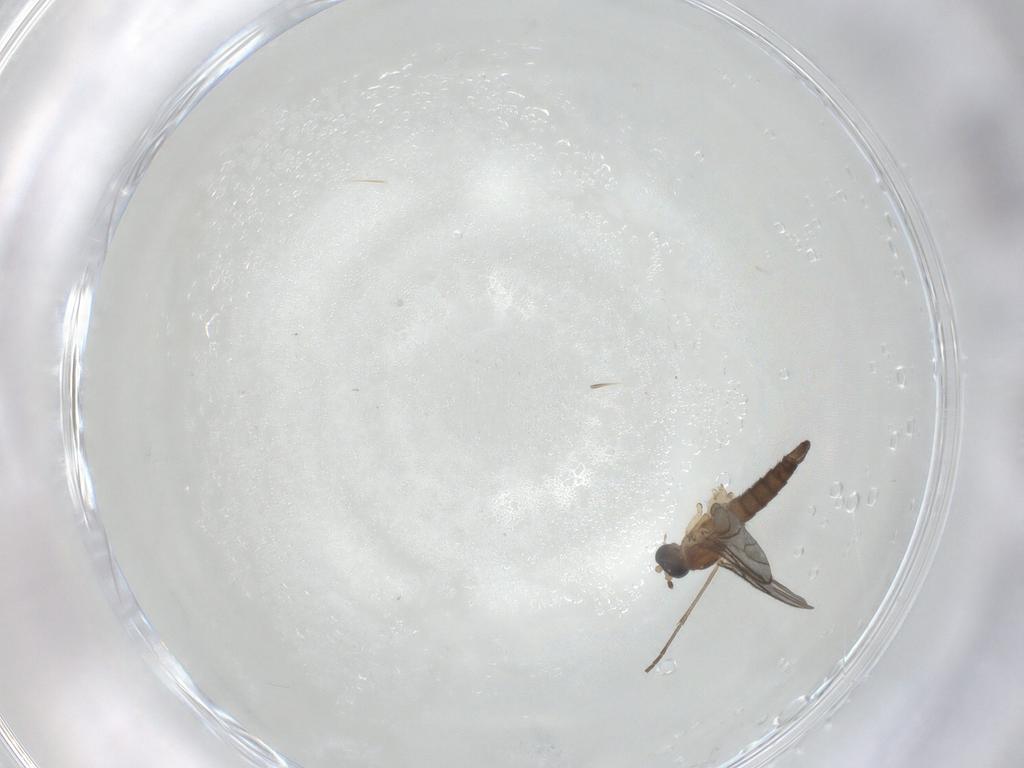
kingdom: Animalia
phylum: Arthropoda
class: Insecta
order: Diptera
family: Sciaridae
